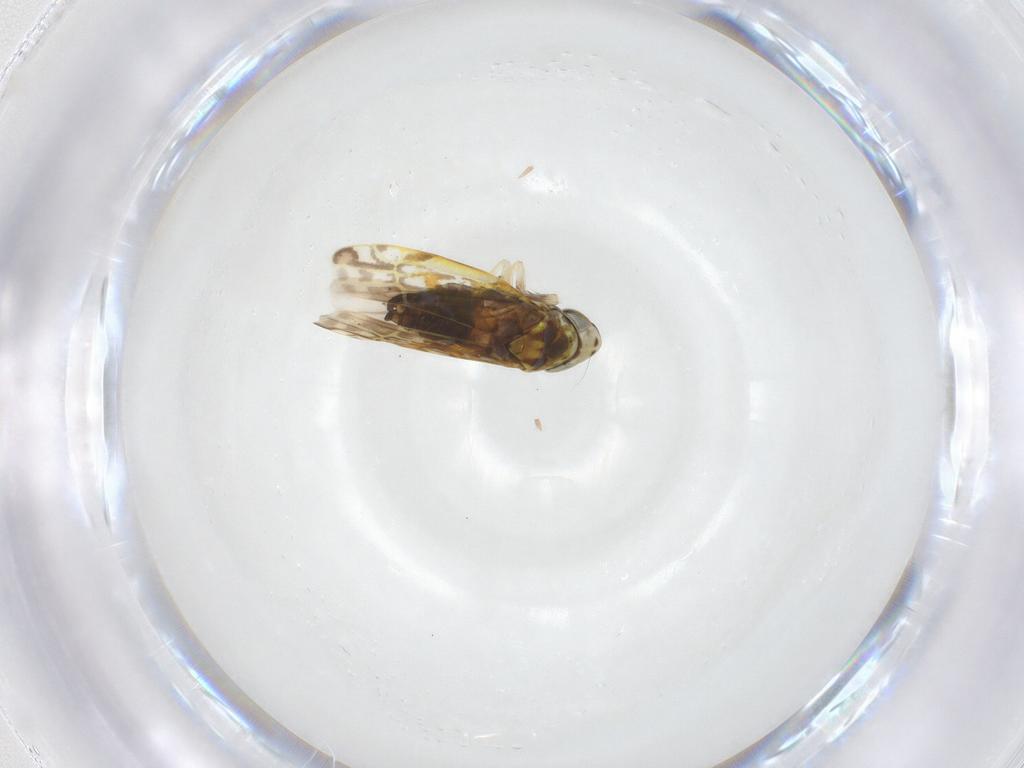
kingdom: Animalia
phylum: Arthropoda
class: Insecta
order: Hemiptera
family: Cicadellidae
